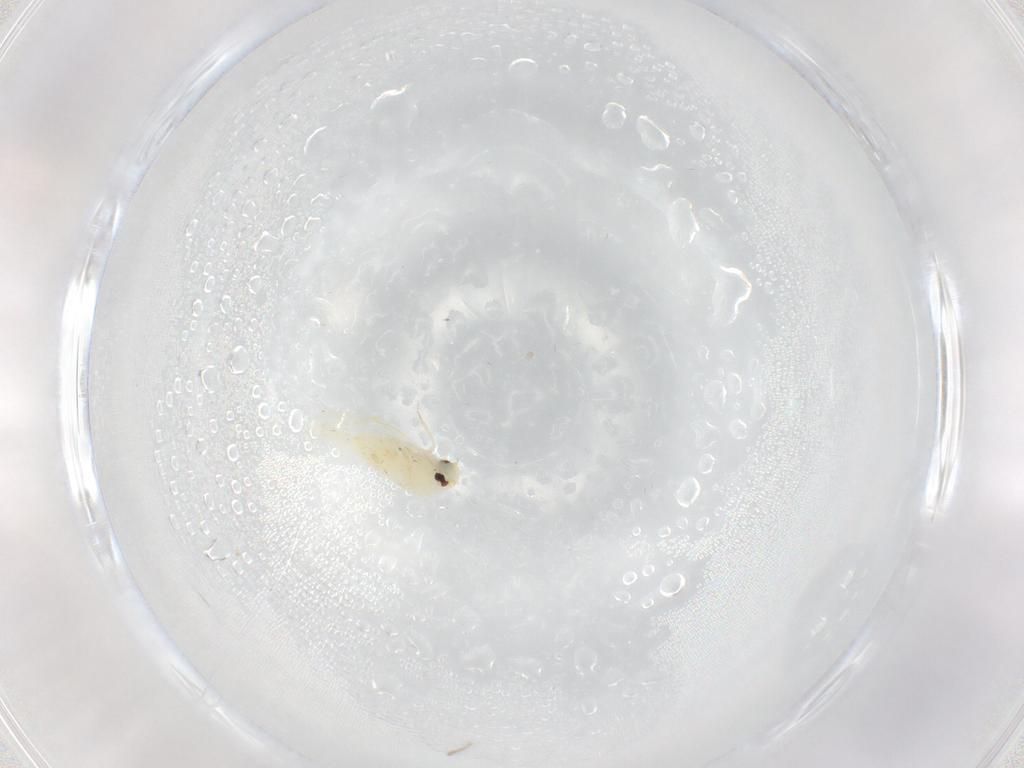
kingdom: Animalia
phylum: Arthropoda
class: Insecta
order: Hemiptera
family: Aleyrodidae
